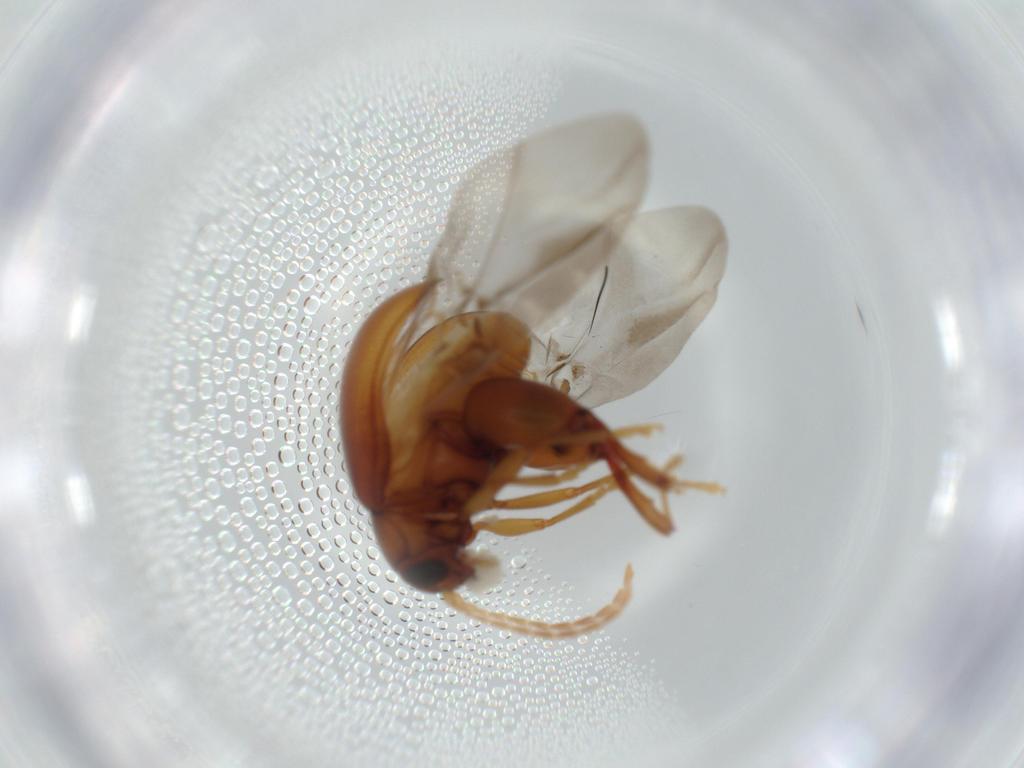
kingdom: Animalia
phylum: Arthropoda
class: Insecta
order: Coleoptera
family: Chrysomelidae
